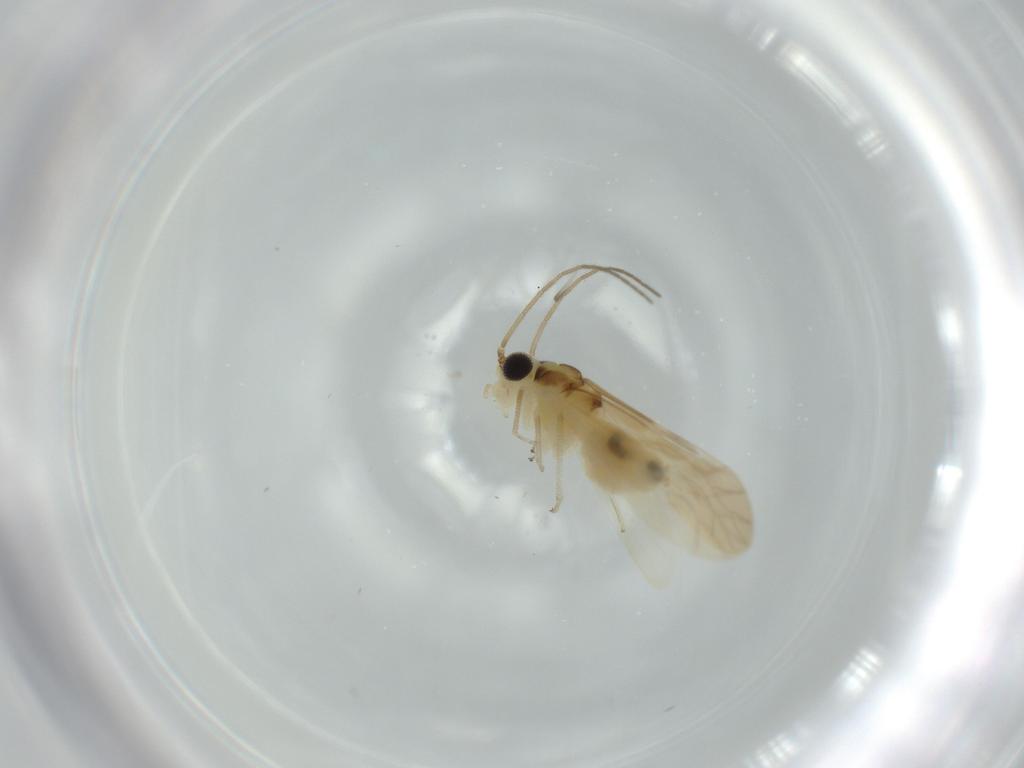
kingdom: Animalia
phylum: Arthropoda
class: Insecta
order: Psocodea
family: Caeciliusidae
